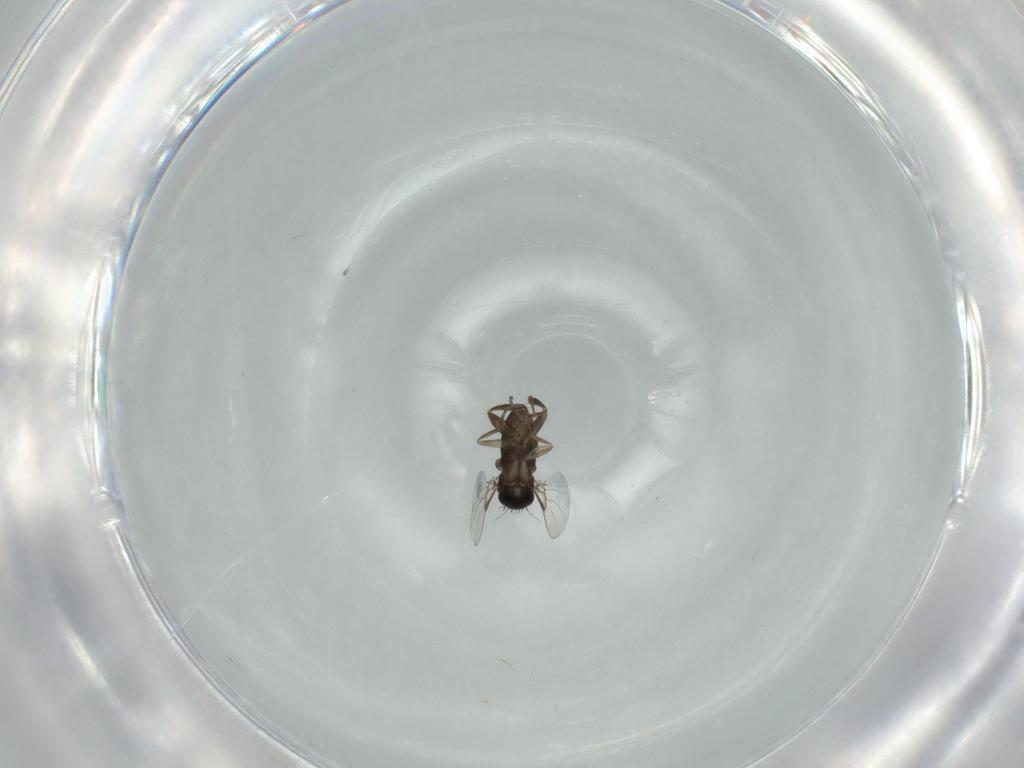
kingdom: Animalia
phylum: Arthropoda
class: Insecta
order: Diptera
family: Phoridae
